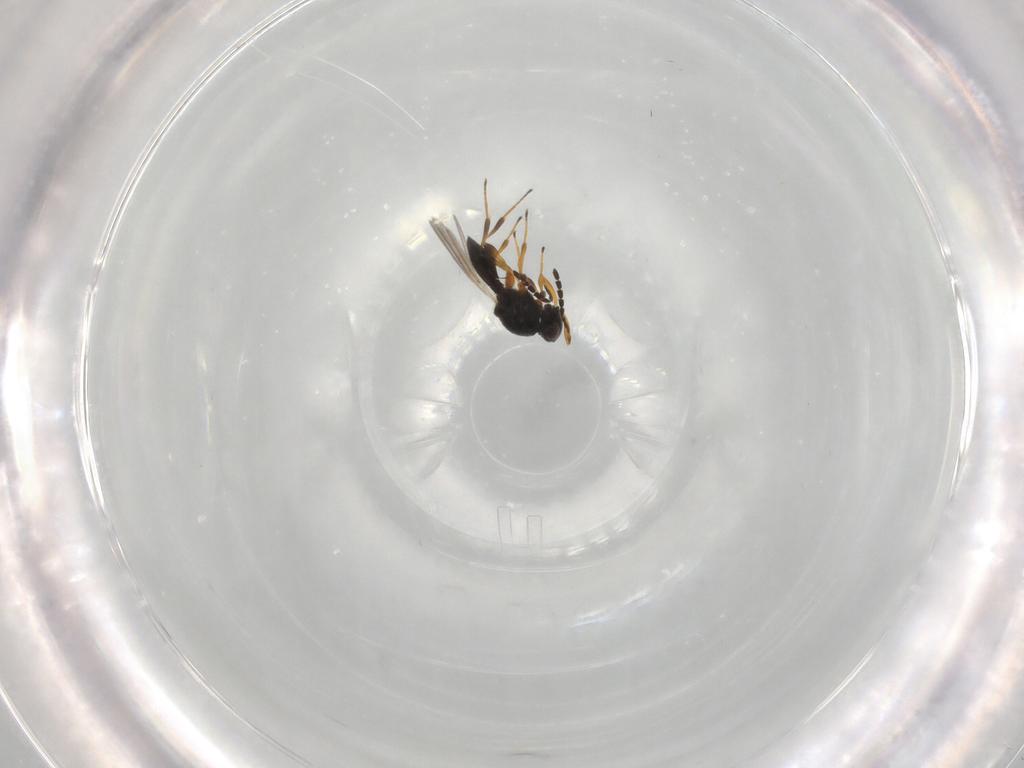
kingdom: Animalia
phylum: Arthropoda
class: Insecta
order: Hymenoptera
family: Platygastridae
